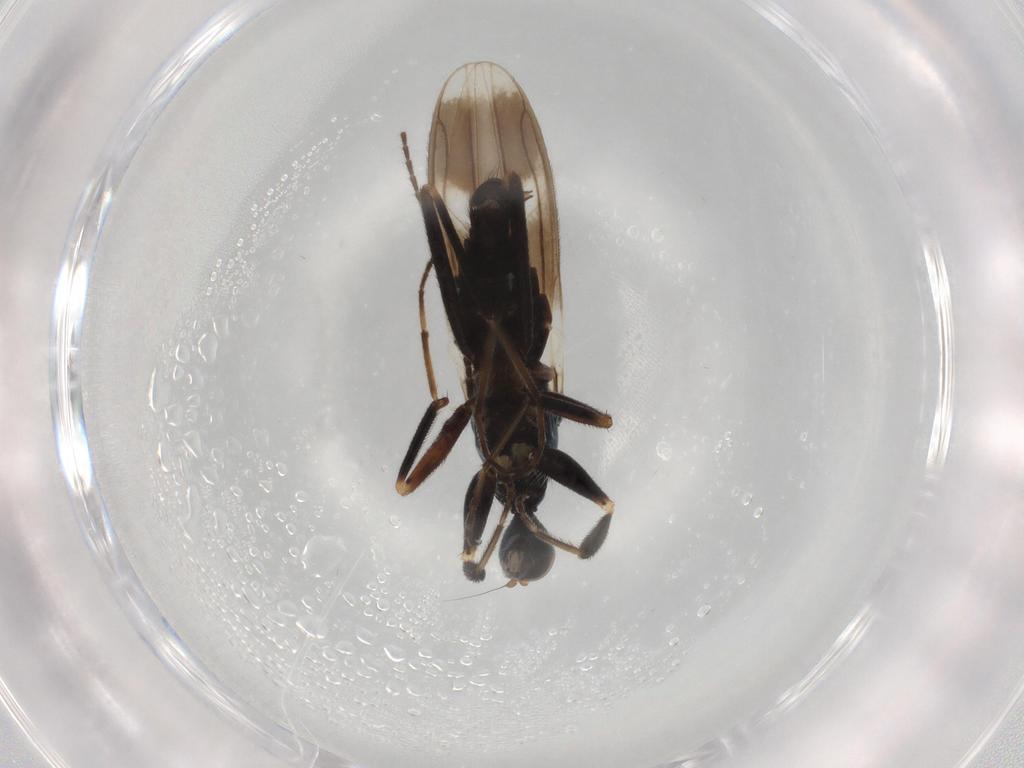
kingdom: Animalia
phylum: Arthropoda
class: Insecta
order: Diptera
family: Hybotidae
